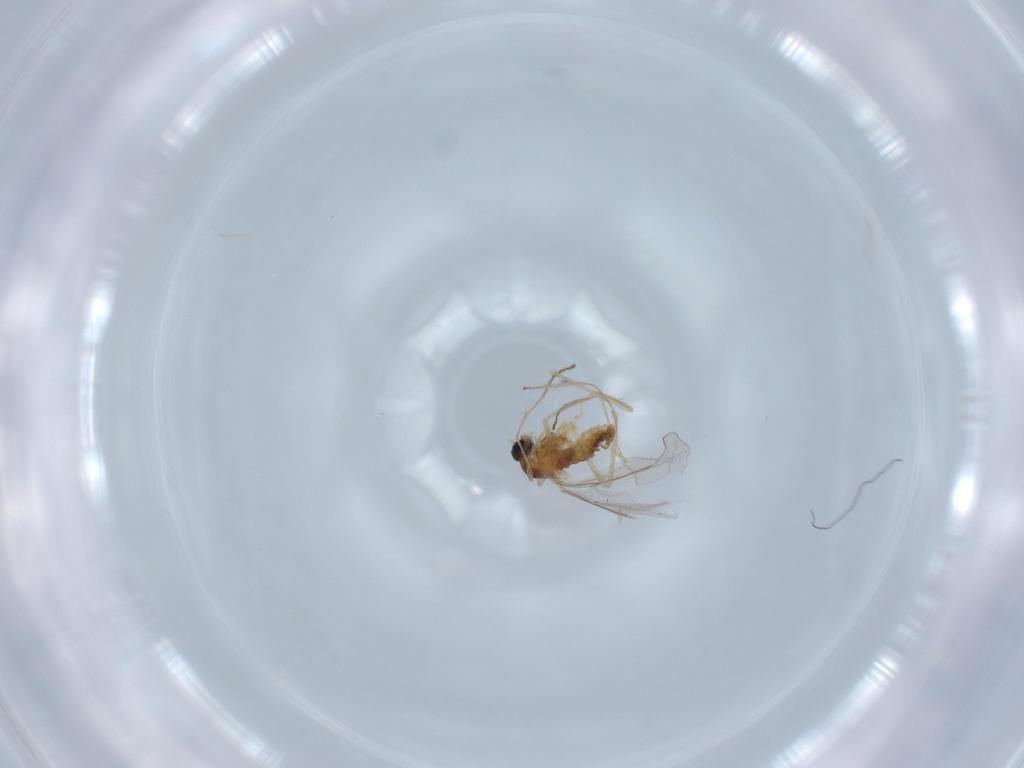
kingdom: Animalia
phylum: Arthropoda
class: Insecta
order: Diptera
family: Cecidomyiidae
